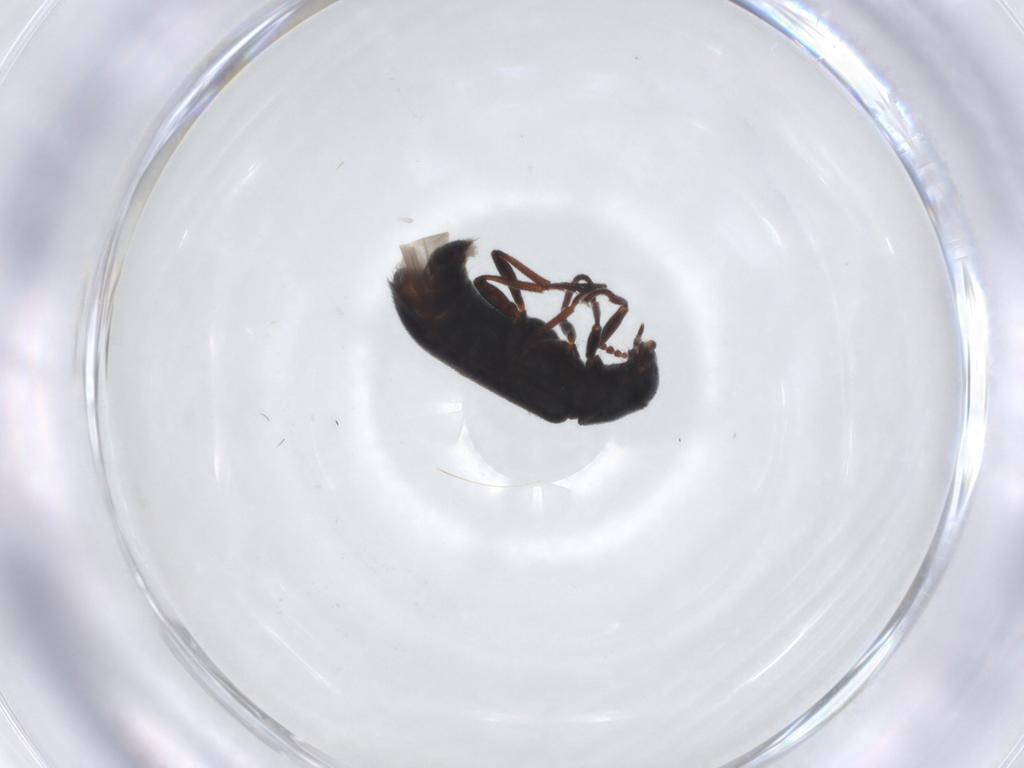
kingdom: Animalia
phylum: Arthropoda
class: Insecta
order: Coleoptera
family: Melyridae
